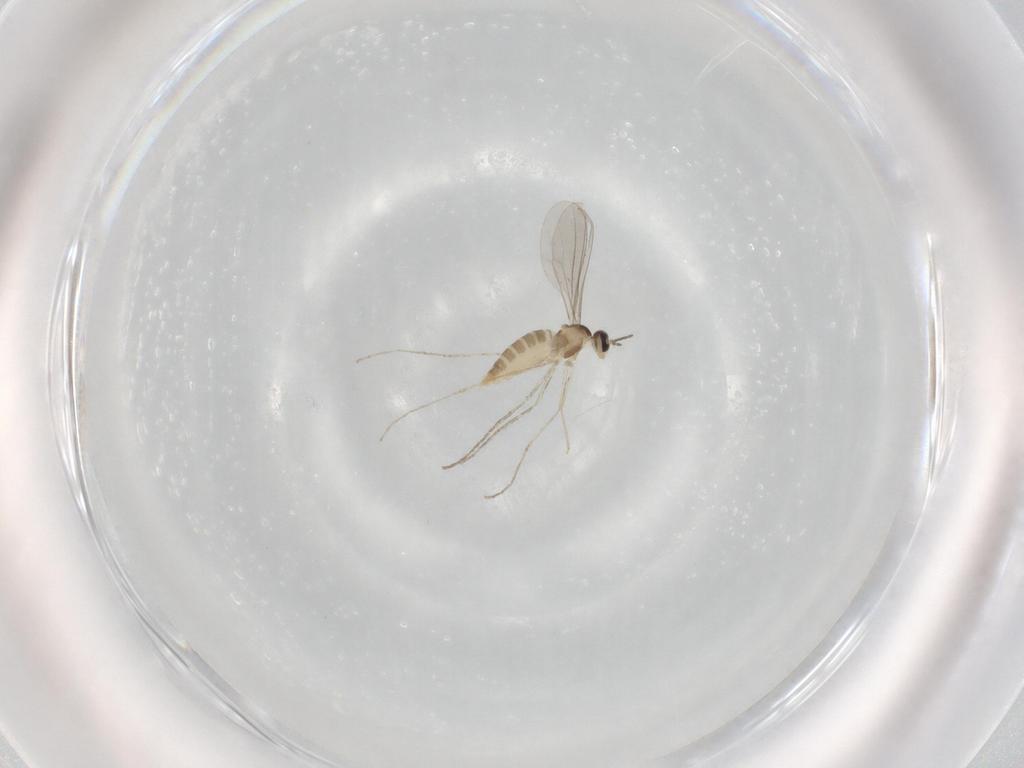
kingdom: Animalia
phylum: Arthropoda
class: Insecta
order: Diptera
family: Cecidomyiidae
